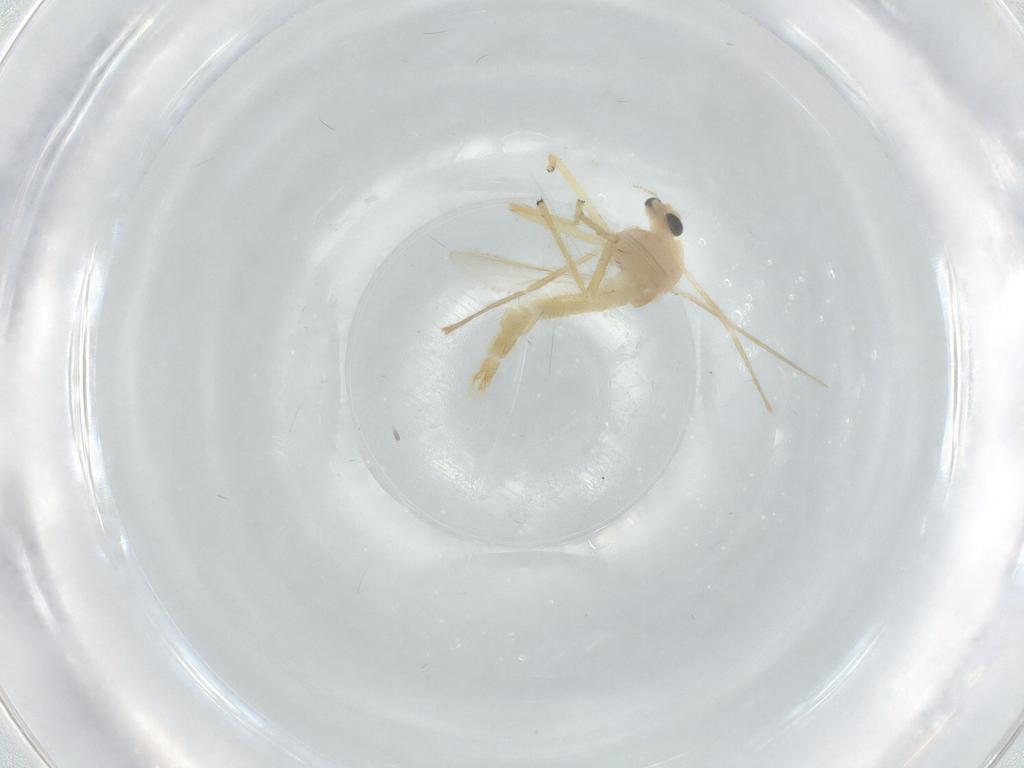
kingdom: Animalia
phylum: Arthropoda
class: Insecta
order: Diptera
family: Chironomidae
